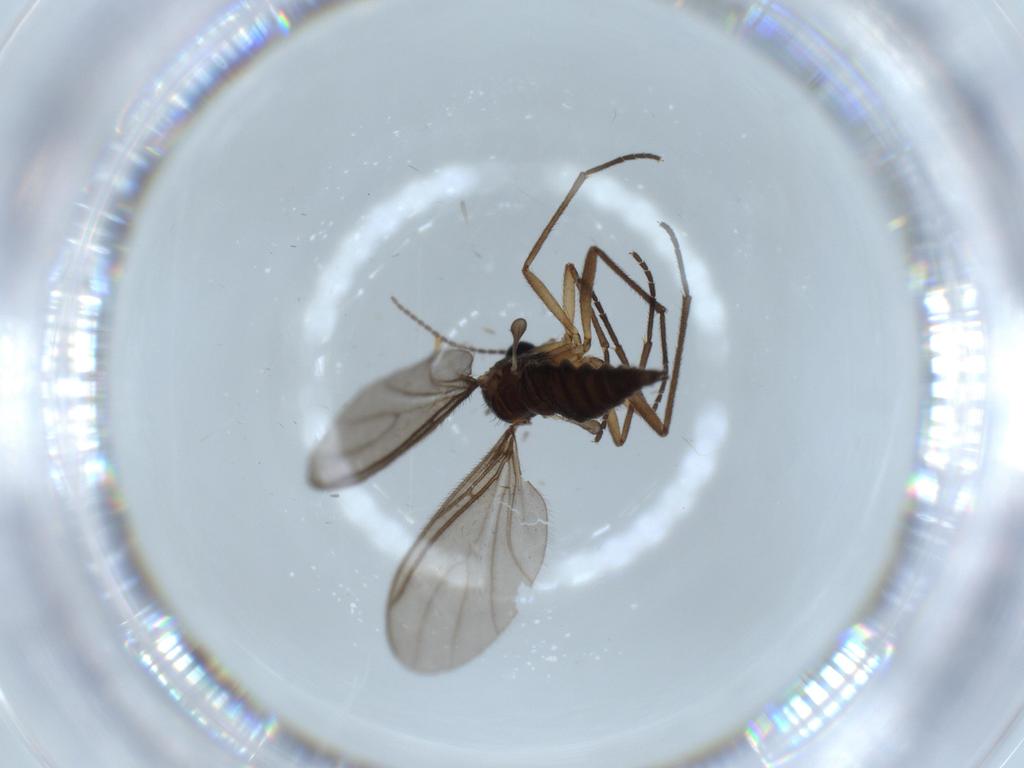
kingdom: Animalia
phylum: Arthropoda
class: Insecta
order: Diptera
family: Sciaridae
